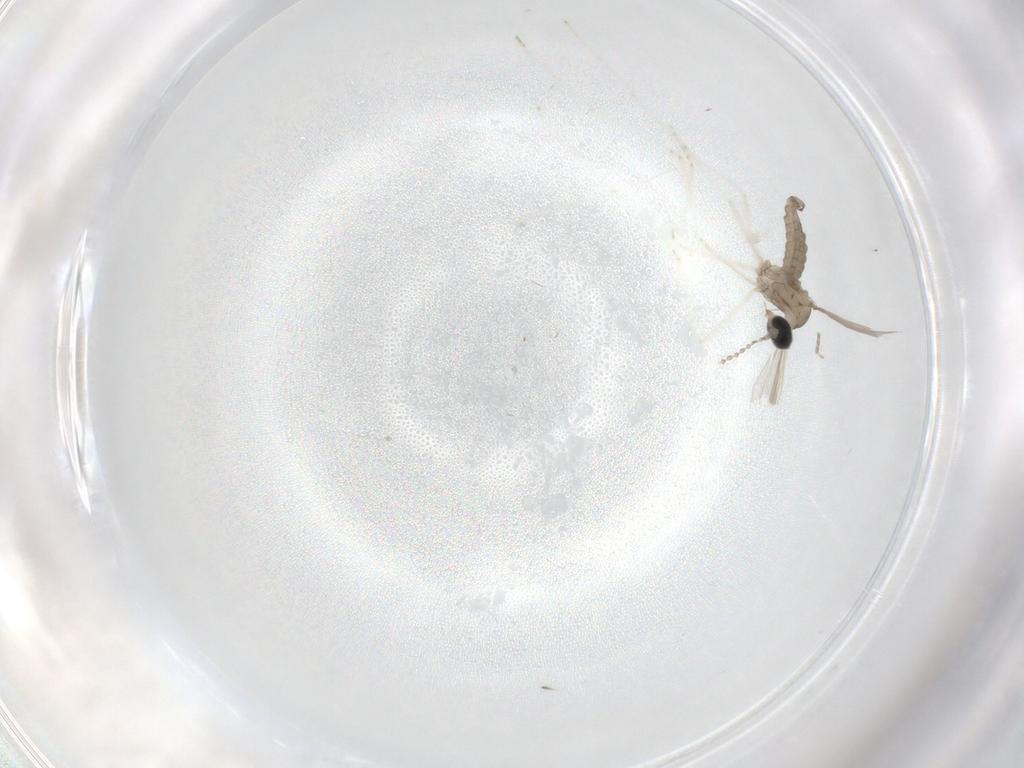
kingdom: Animalia
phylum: Arthropoda
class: Insecta
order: Diptera
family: Cecidomyiidae
